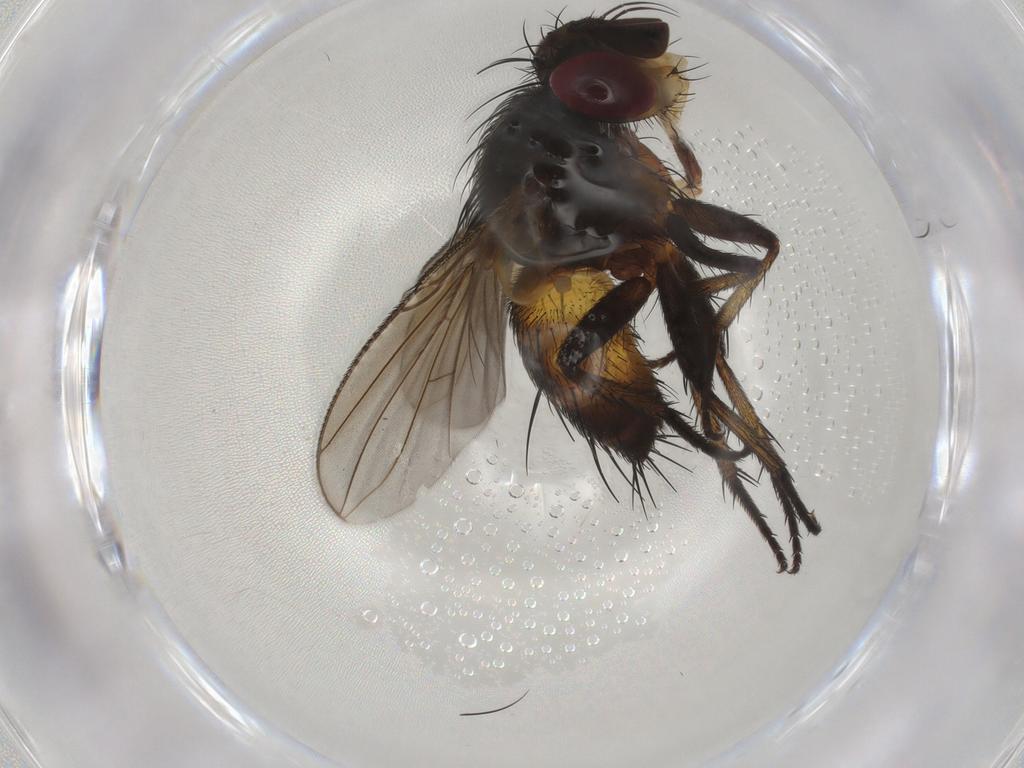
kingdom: Animalia
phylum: Arthropoda
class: Insecta
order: Diptera
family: Tachinidae
